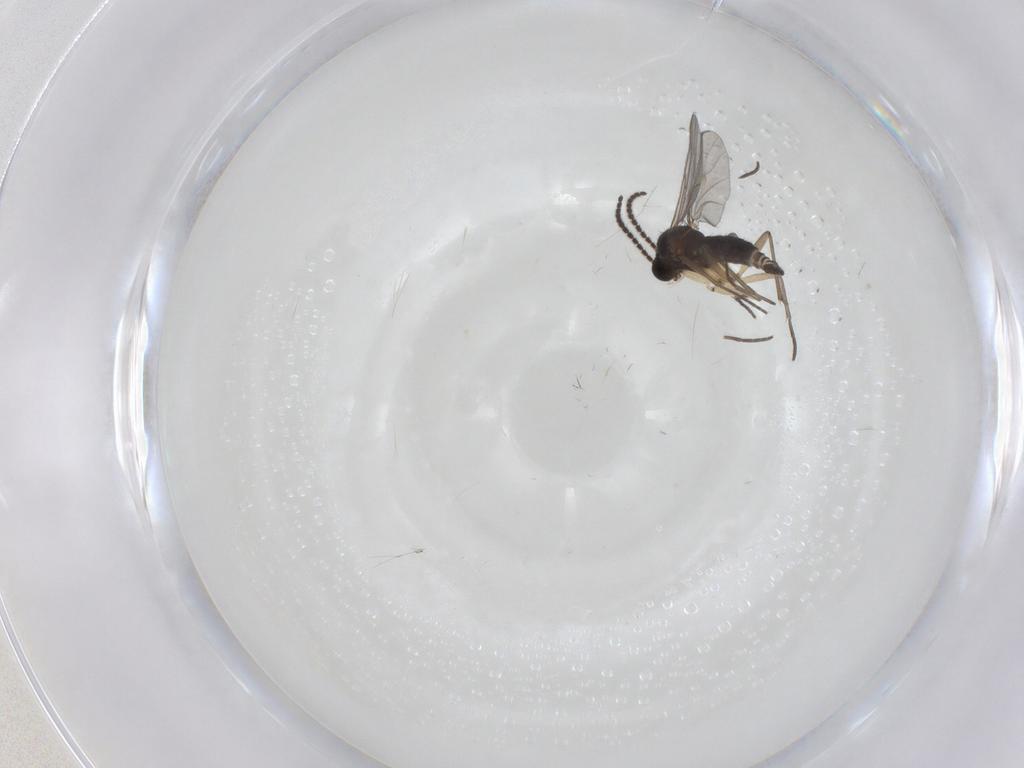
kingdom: Animalia
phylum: Arthropoda
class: Insecta
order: Diptera
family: Sciaridae
